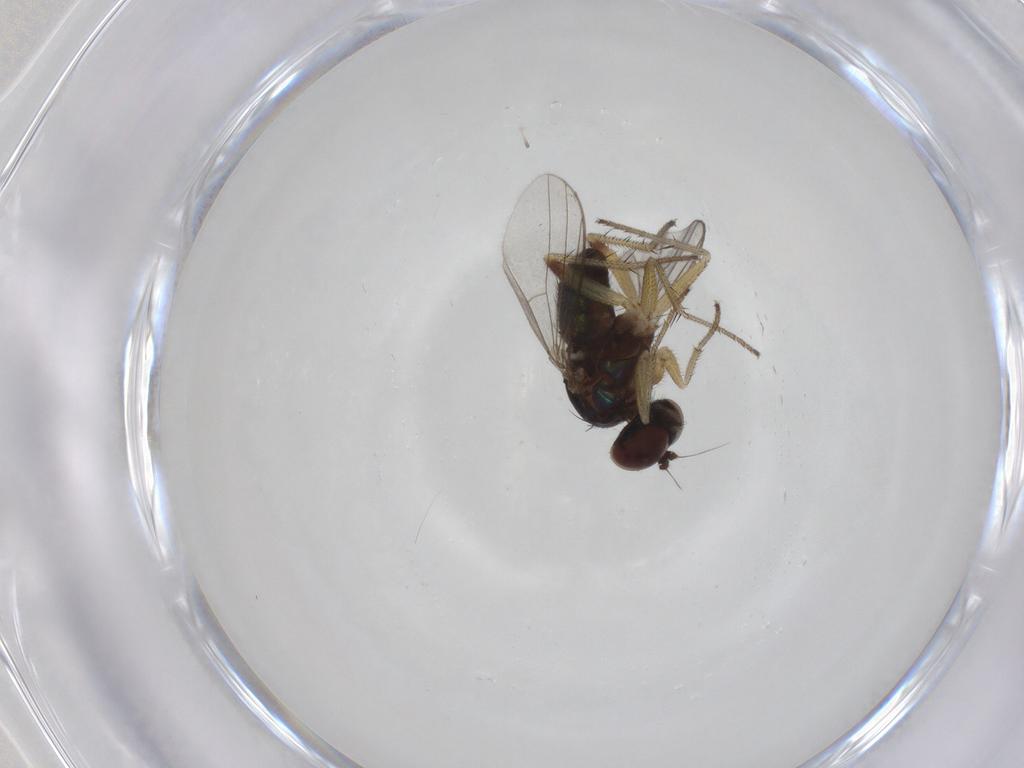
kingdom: Animalia
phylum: Arthropoda
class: Insecta
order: Diptera
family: Dolichopodidae
